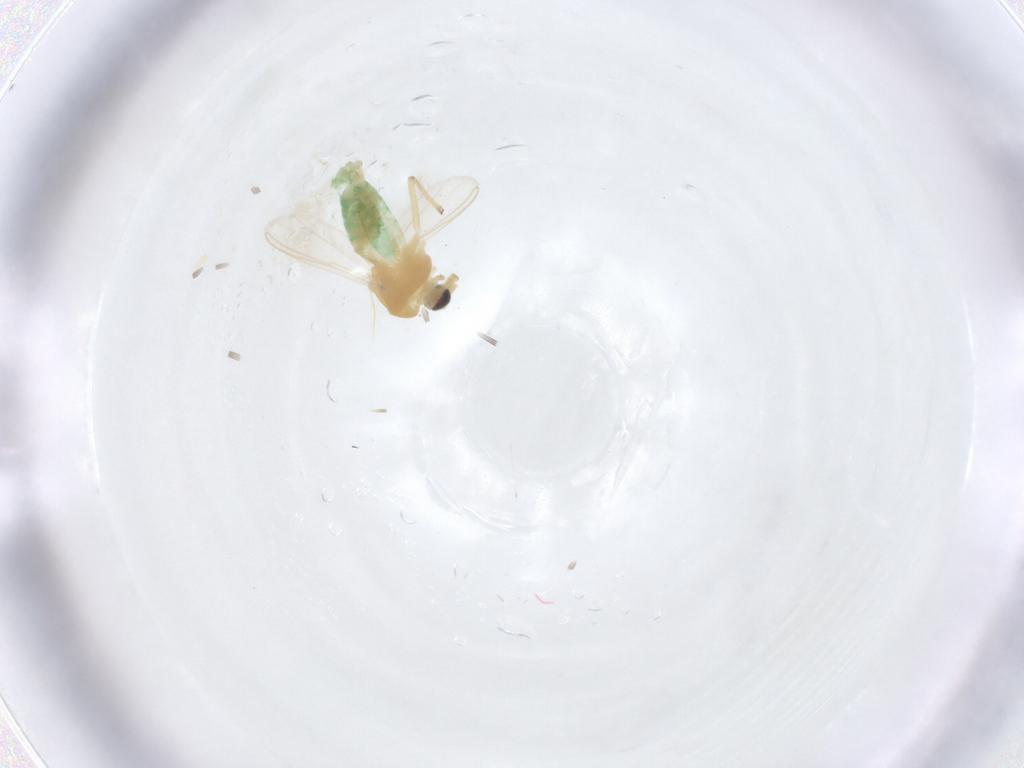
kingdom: Animalia
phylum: Arthropoda
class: Insecta
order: Diptera
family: Chironomidae
